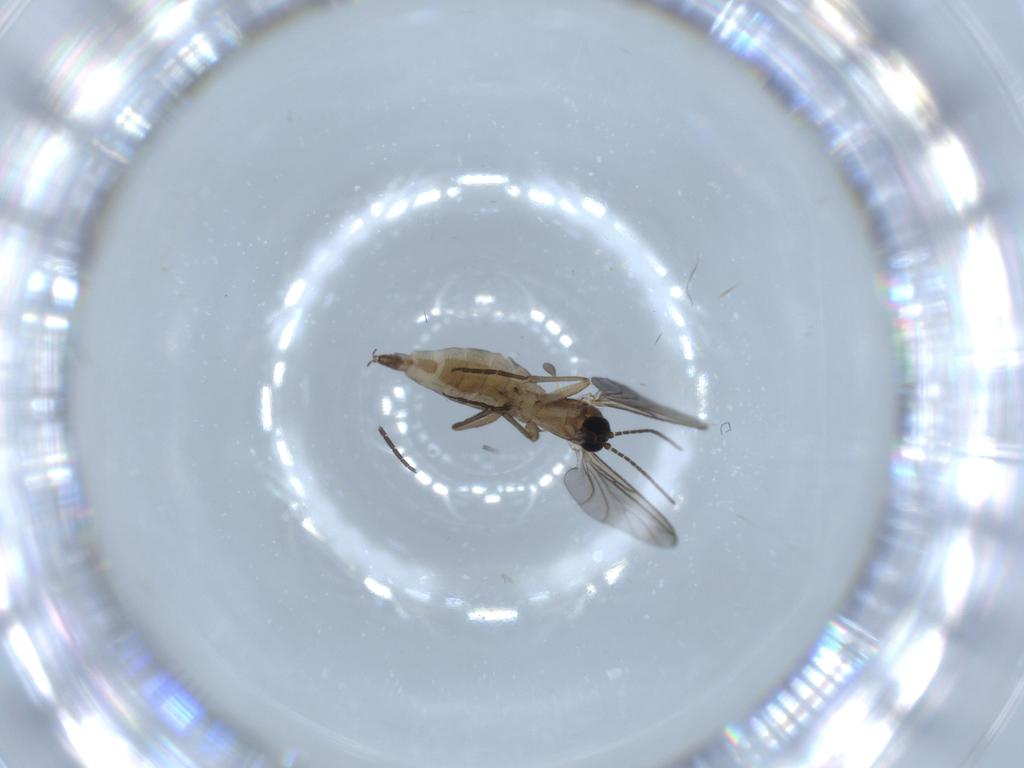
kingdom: Animalia
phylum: Arthropoda
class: Insecta
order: Diptera
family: Sciaridae
